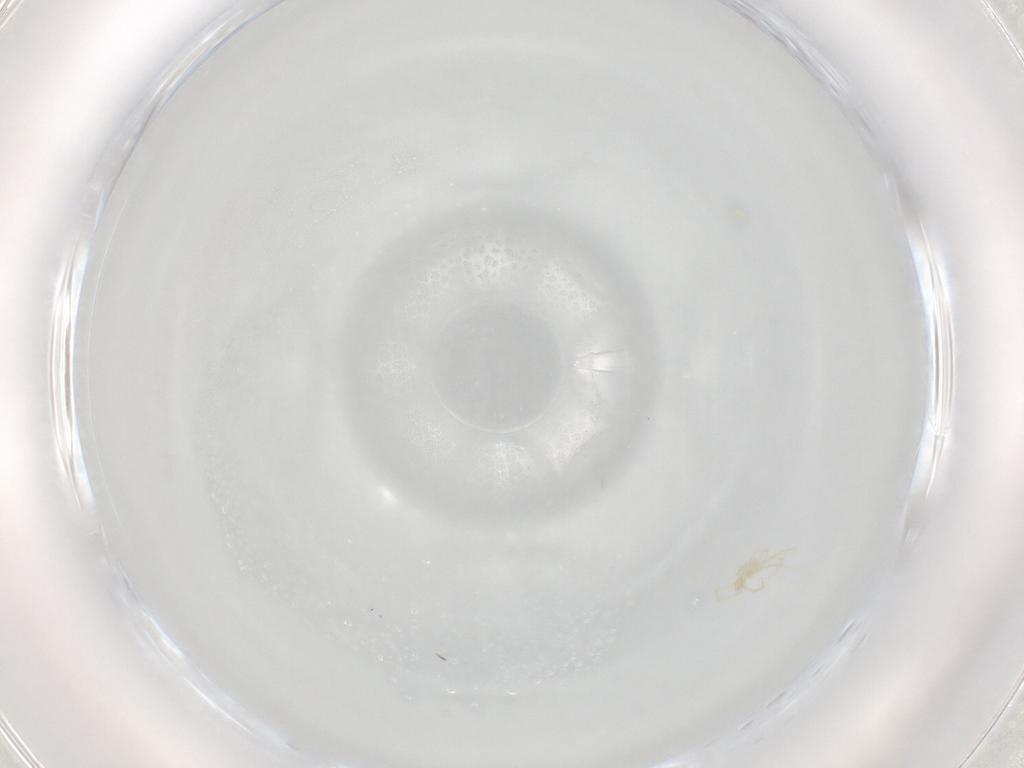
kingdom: Animalia
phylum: Arthropoda
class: Arachnida
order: Trombidiformes
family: Erythraeidae
